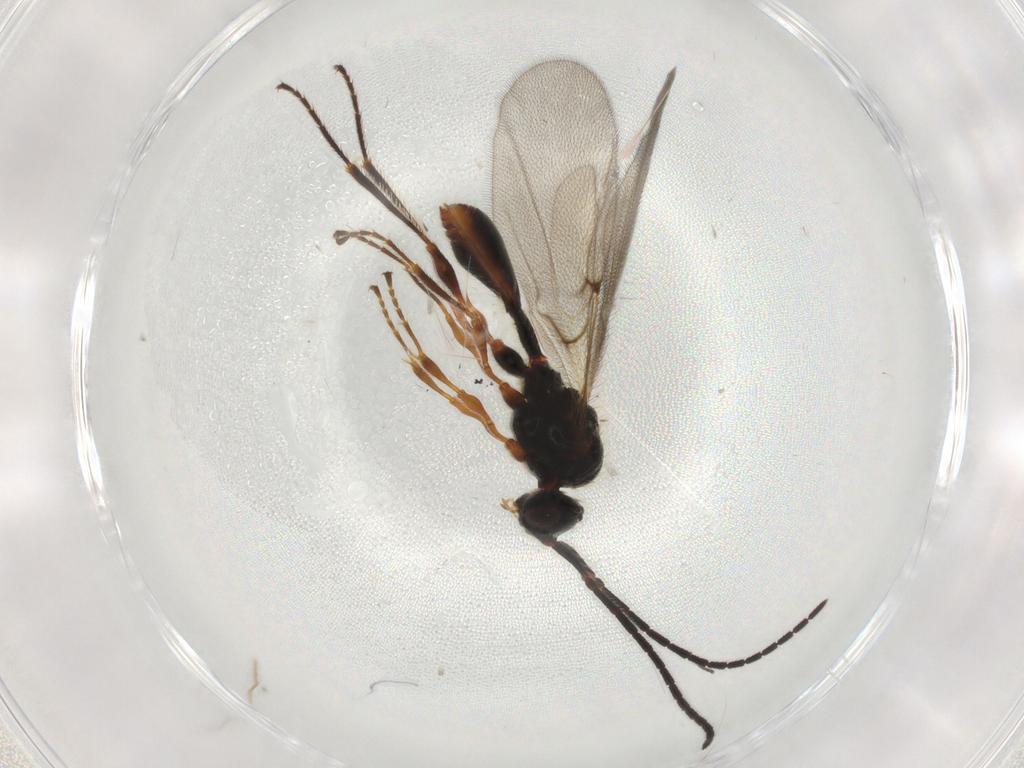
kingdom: Animalia
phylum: Arthropoda
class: Insecta
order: Hymenoptera
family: Diapriidae
